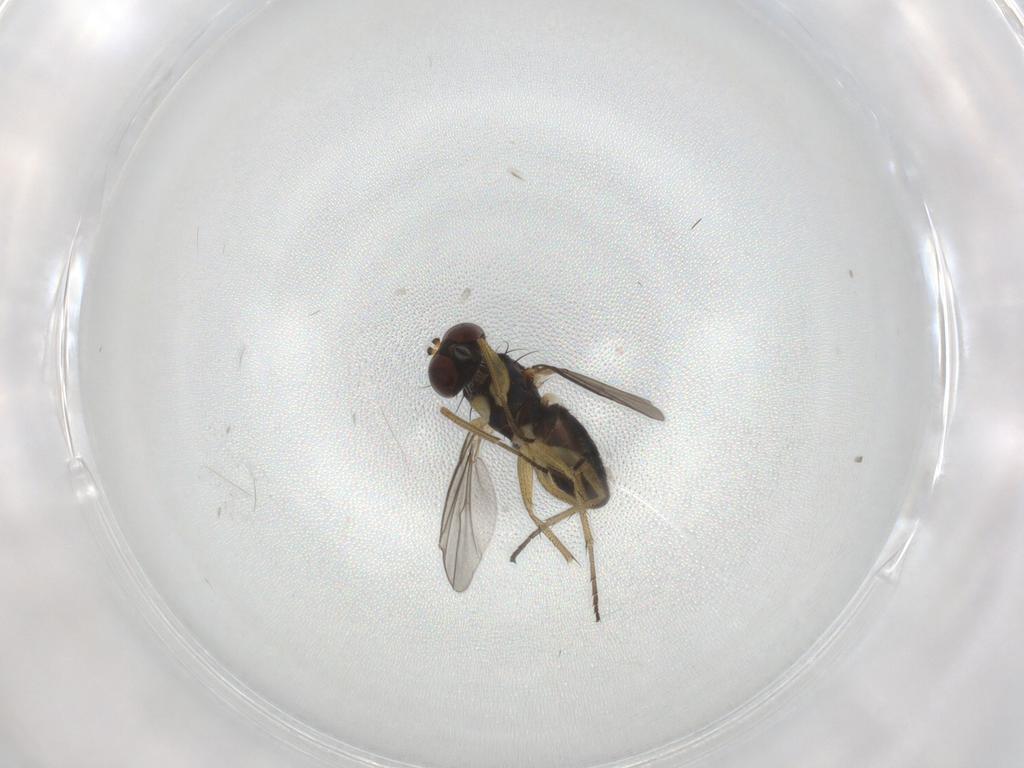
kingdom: Animalia
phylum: Arthropoda
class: Insecta
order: Diptera
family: Dolichopodidae
